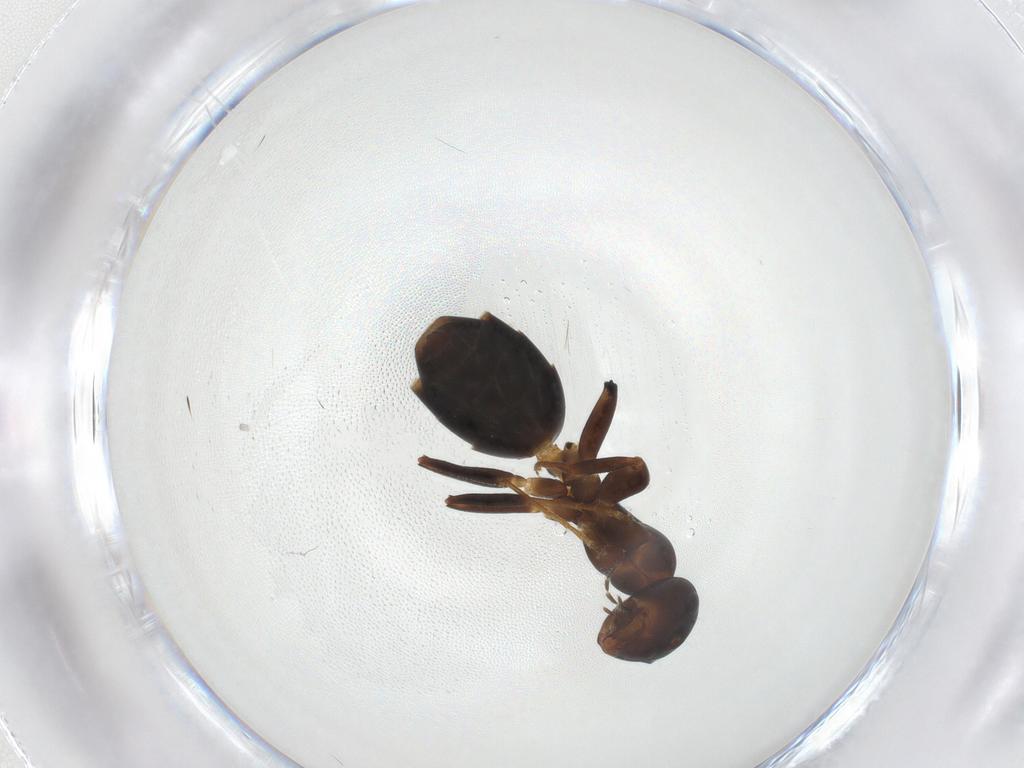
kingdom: Animalia
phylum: Arthropoda
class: Insecta
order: Hymenoptera
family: Formicidae
